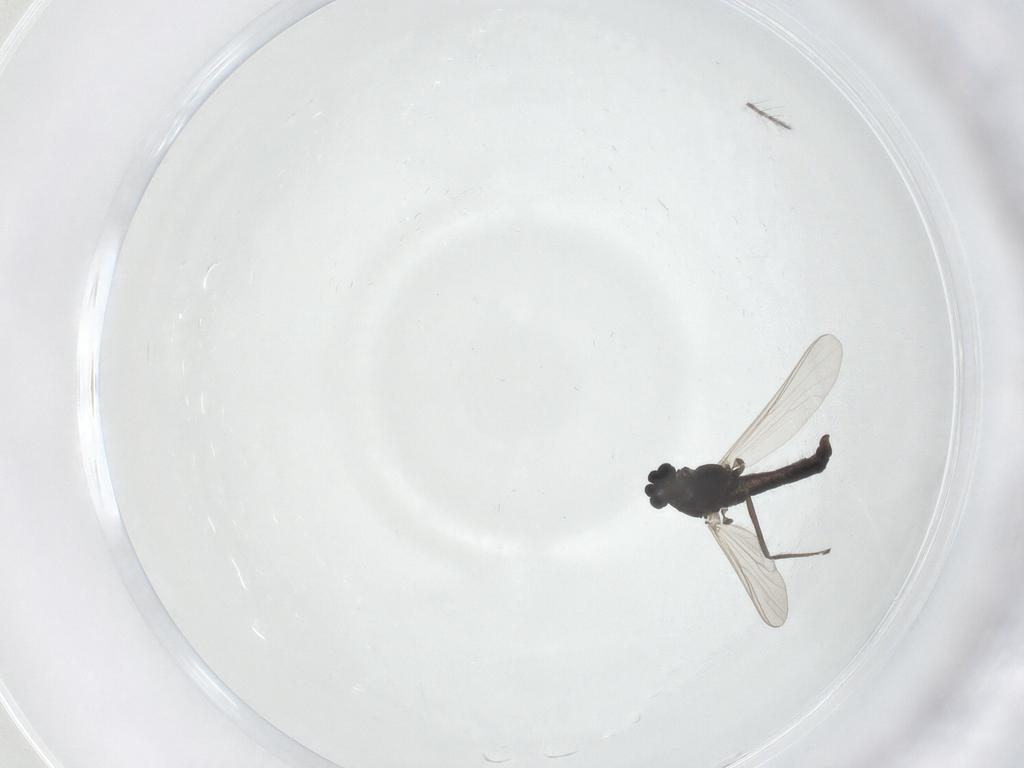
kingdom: Animalia
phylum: Arthropoda
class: Insecta
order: Diptera
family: Chironomidae
